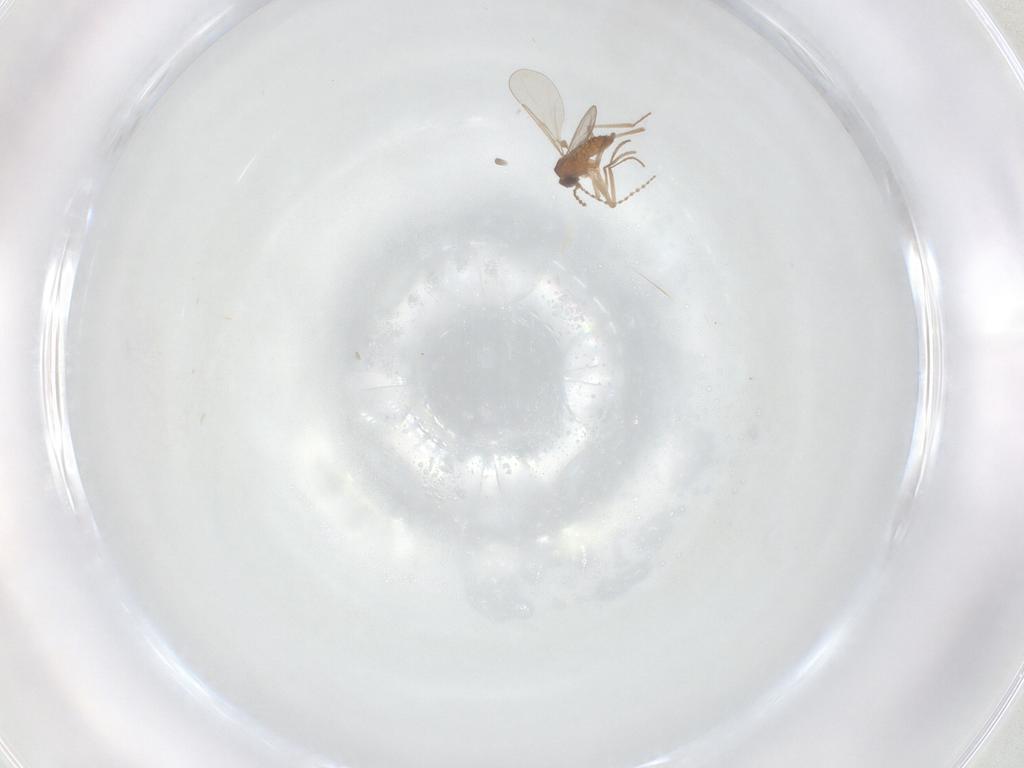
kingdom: Animalia
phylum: Arthropoda
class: Insecta
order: Diptera
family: Cecidomyiidae
